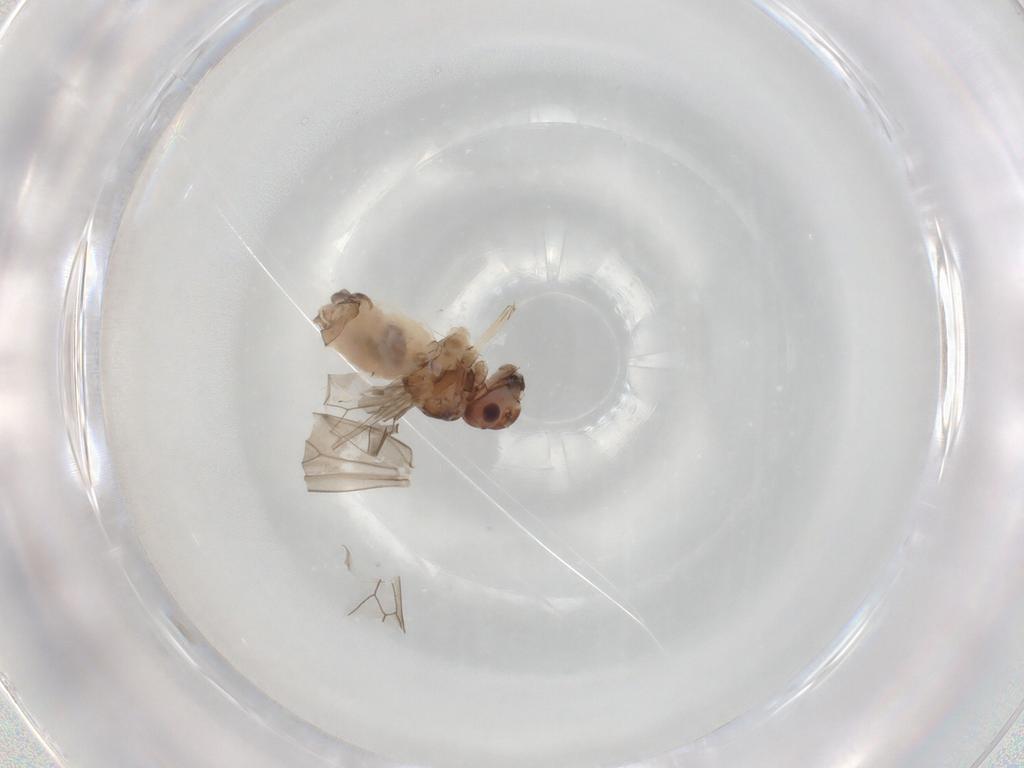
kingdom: Animalia
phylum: Arthropoda
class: Insecta
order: Psocodea
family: Peripsocidae
